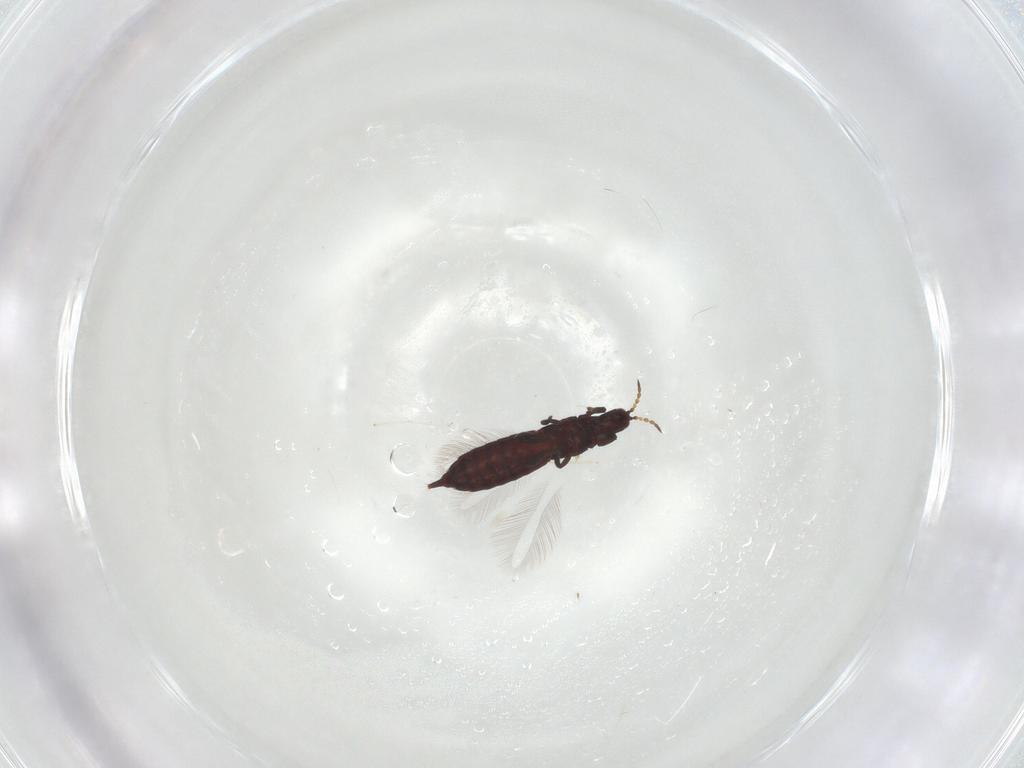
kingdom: Animalia
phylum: Arthropoda
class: Insecta
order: Thysanoptera
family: Phlaeothripidae
